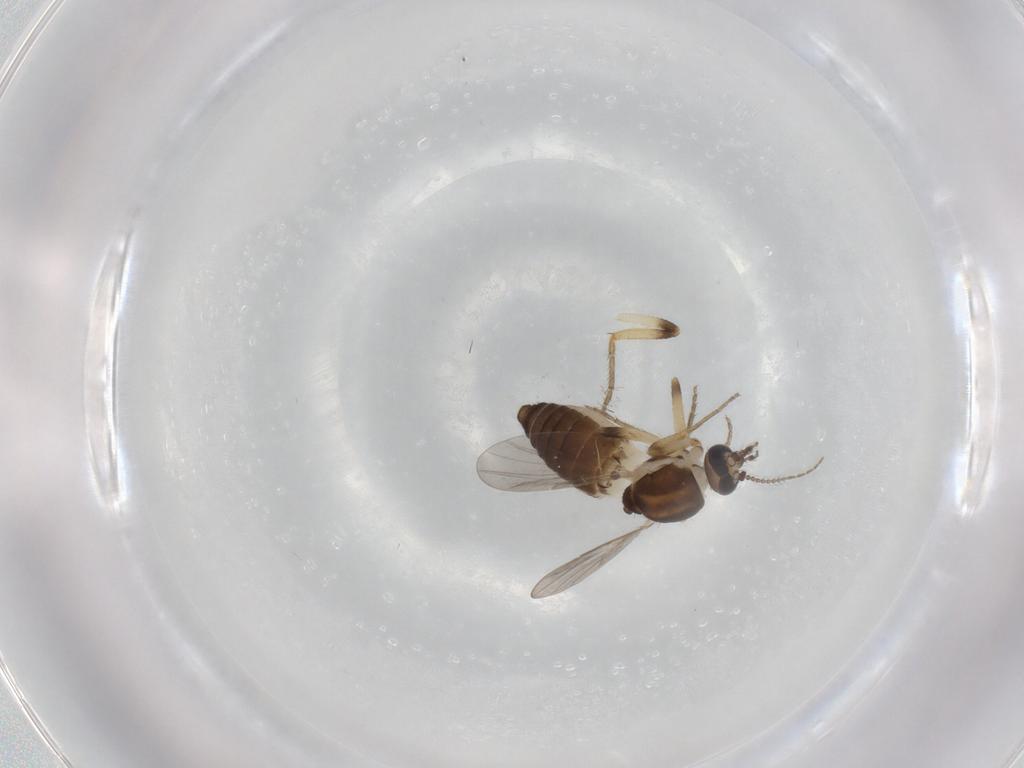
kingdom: Animalia
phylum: Arthropoda
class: Insecta
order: Diptera
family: Ceratopogonidae
